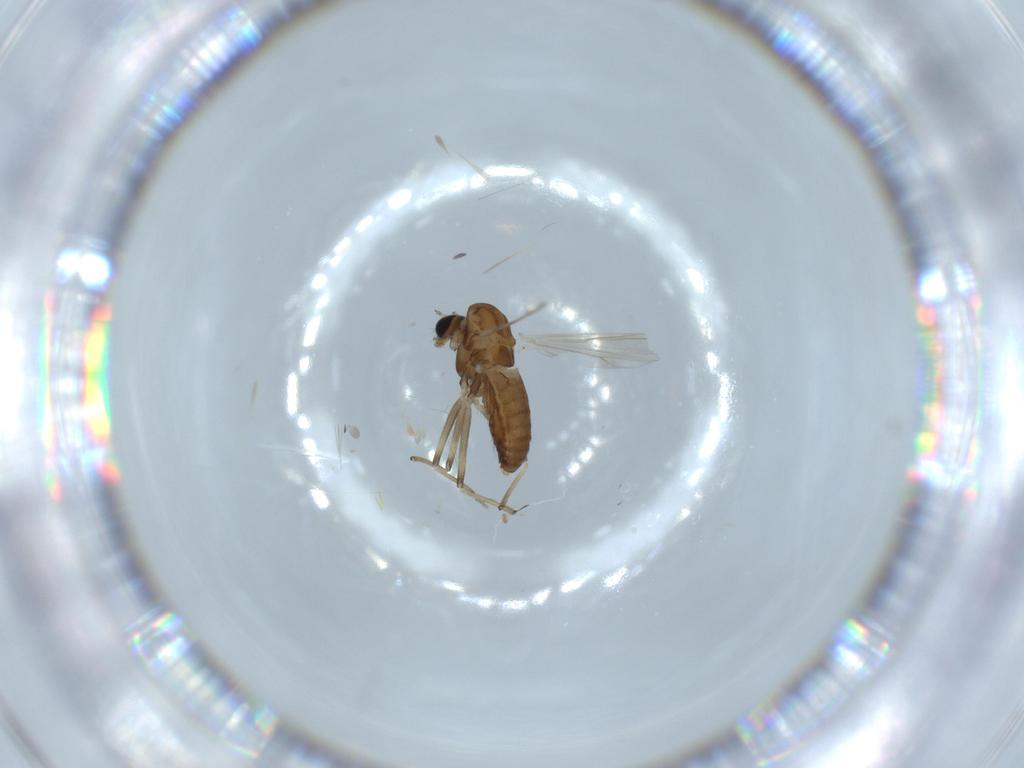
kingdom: Animalia
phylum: Arthropoda
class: Insecta
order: Diptera
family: Chironomidae
